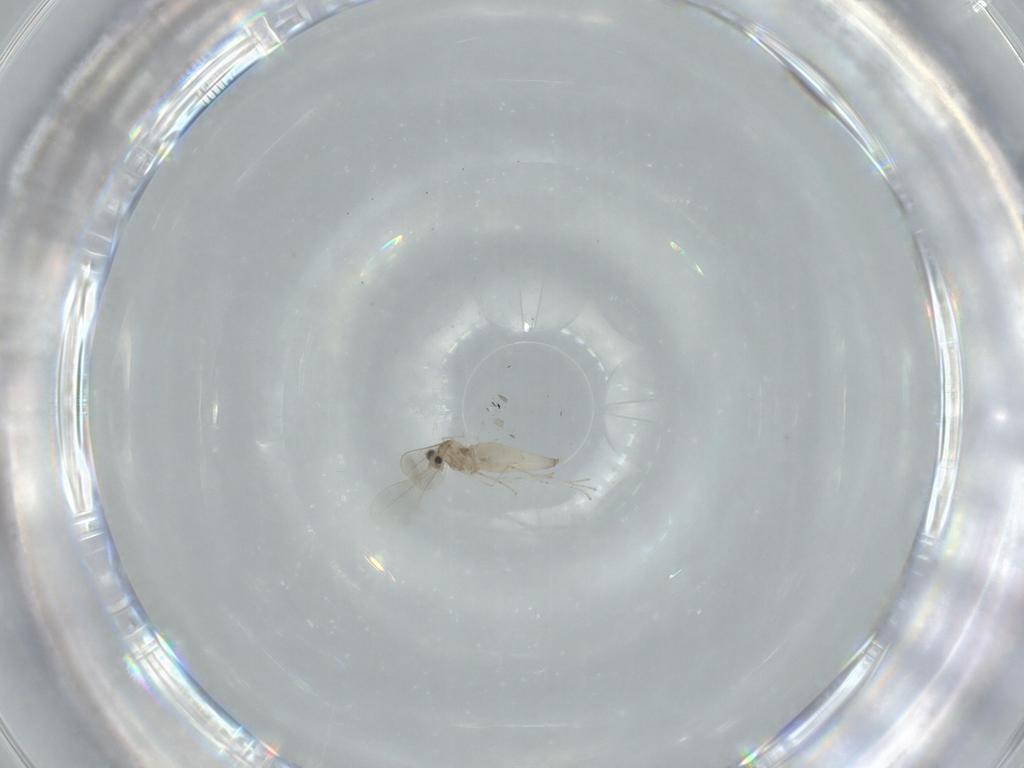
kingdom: Animalia
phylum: Arthropoda
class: Insecta
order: Diptera
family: Cecidomyiidae
